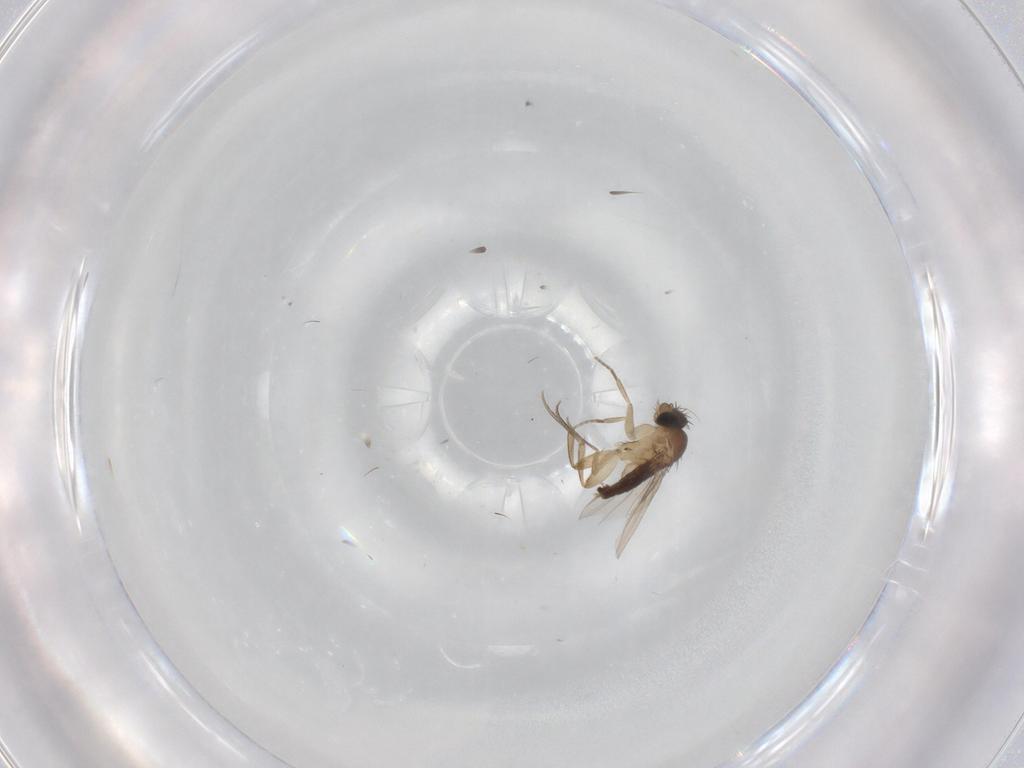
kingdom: Animalia
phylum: Arthropoda
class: Insecta
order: Diptera
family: Phoridae
